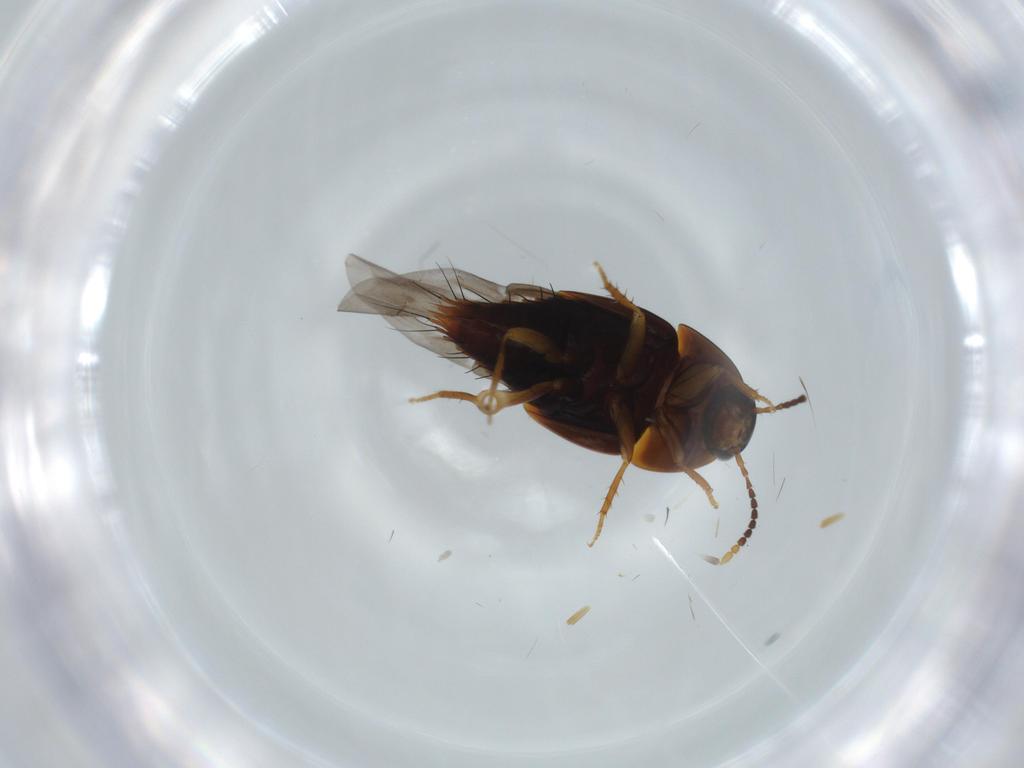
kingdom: Animalia
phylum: Arthropoda
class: Insecta
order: Coleoptera
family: Staphylinidae
